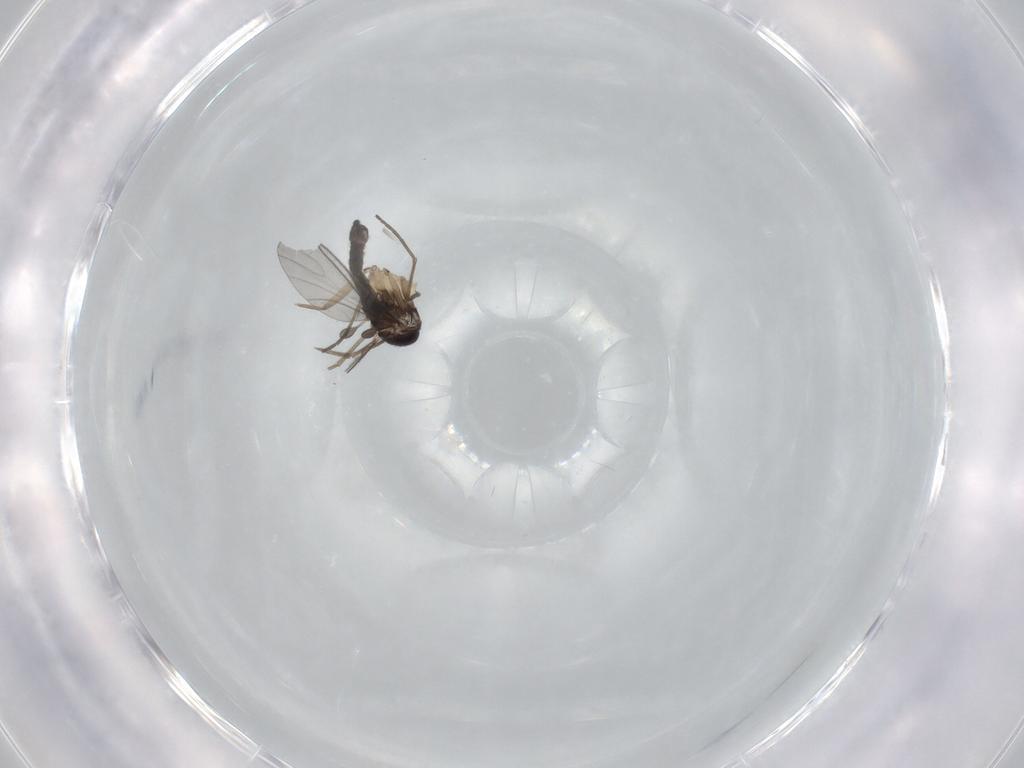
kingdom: Animalia
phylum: Arthropoda
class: Insecta
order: Diptera
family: Sciaridae
